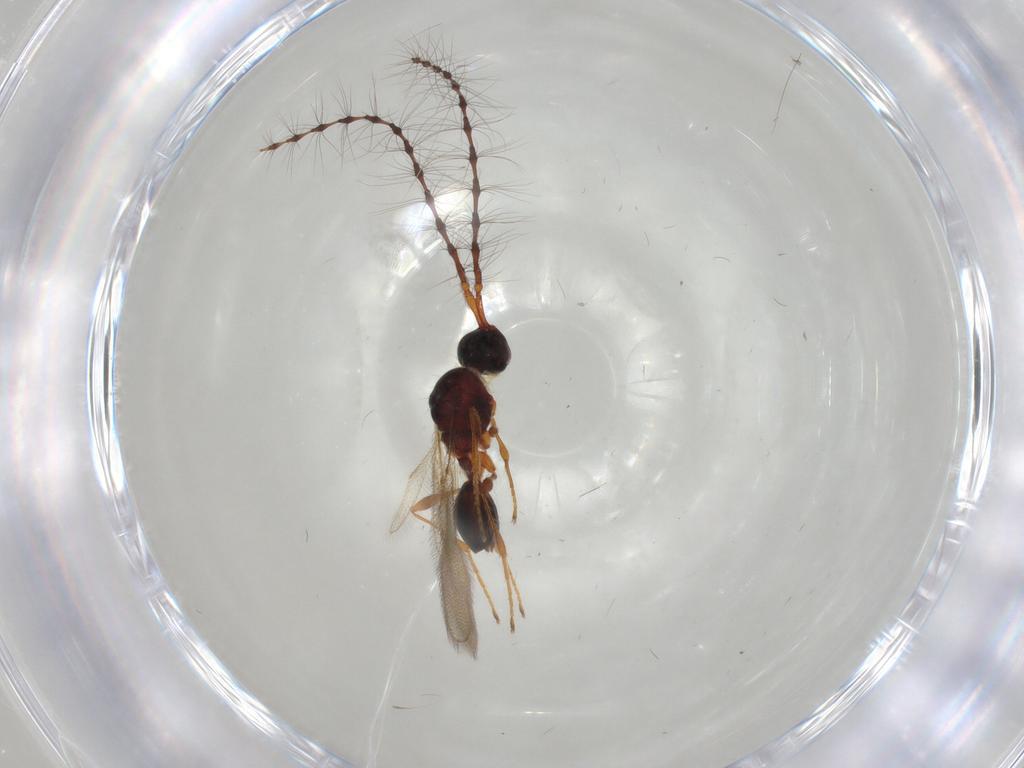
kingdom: Animalia
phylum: Arthropoda
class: Insecta
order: Hymenoptera
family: Diapriidae
